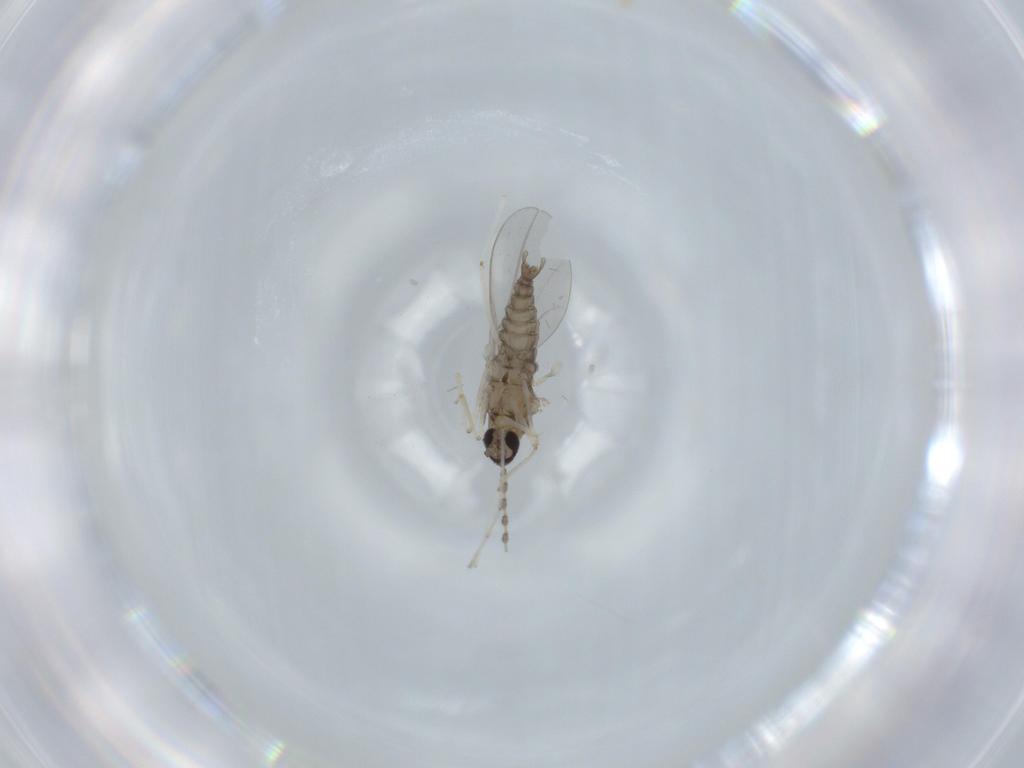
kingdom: Animalia
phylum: Arthropoda
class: Insecta
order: Diptera
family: Cecidomyiidae
